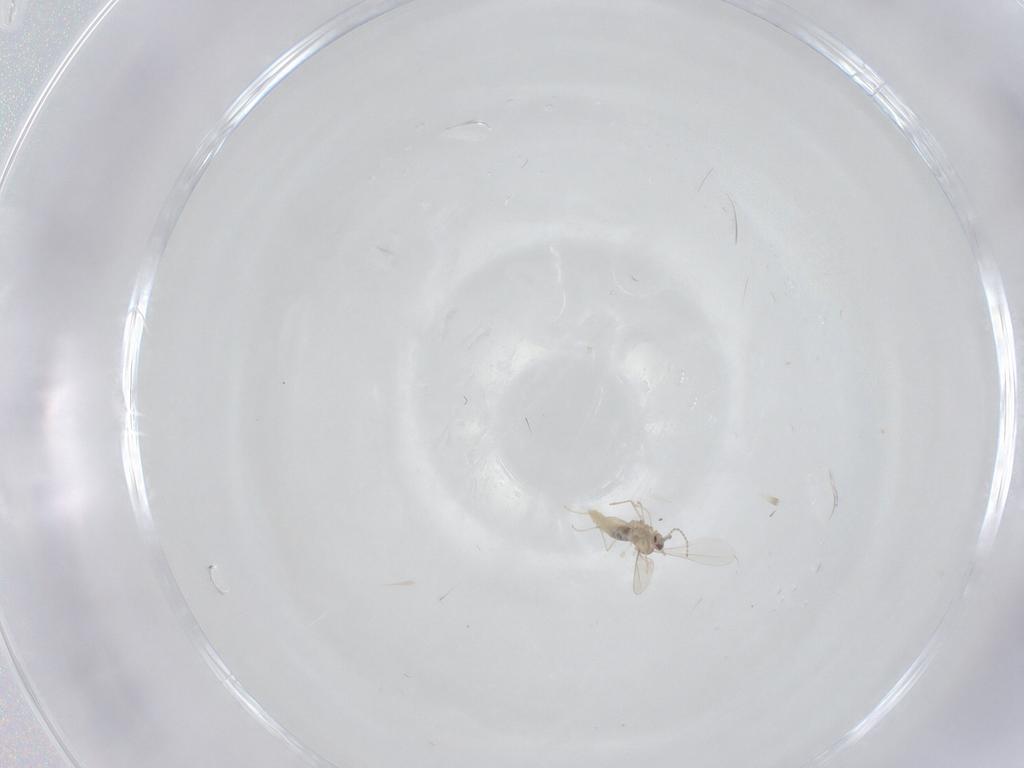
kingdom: Animalia
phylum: Arthropoda
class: Insecta
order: Diptera
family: Cecidomyiidae
